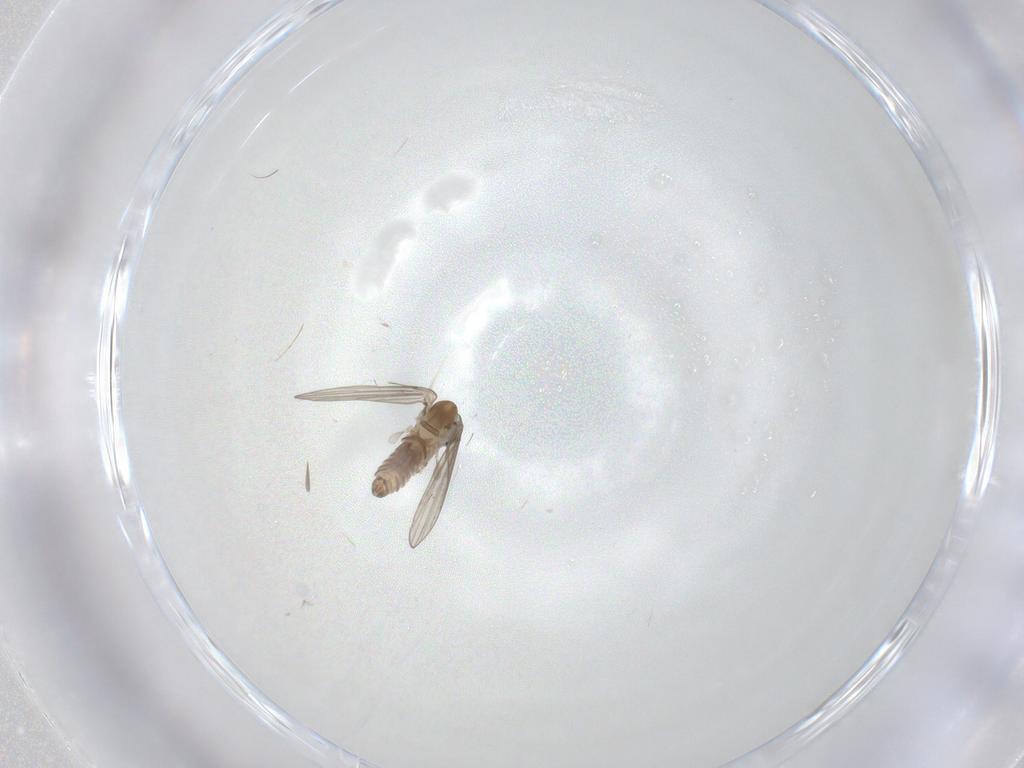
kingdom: Animalia
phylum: Arthropoda
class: Insecta
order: Diptera
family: Psychodidae
